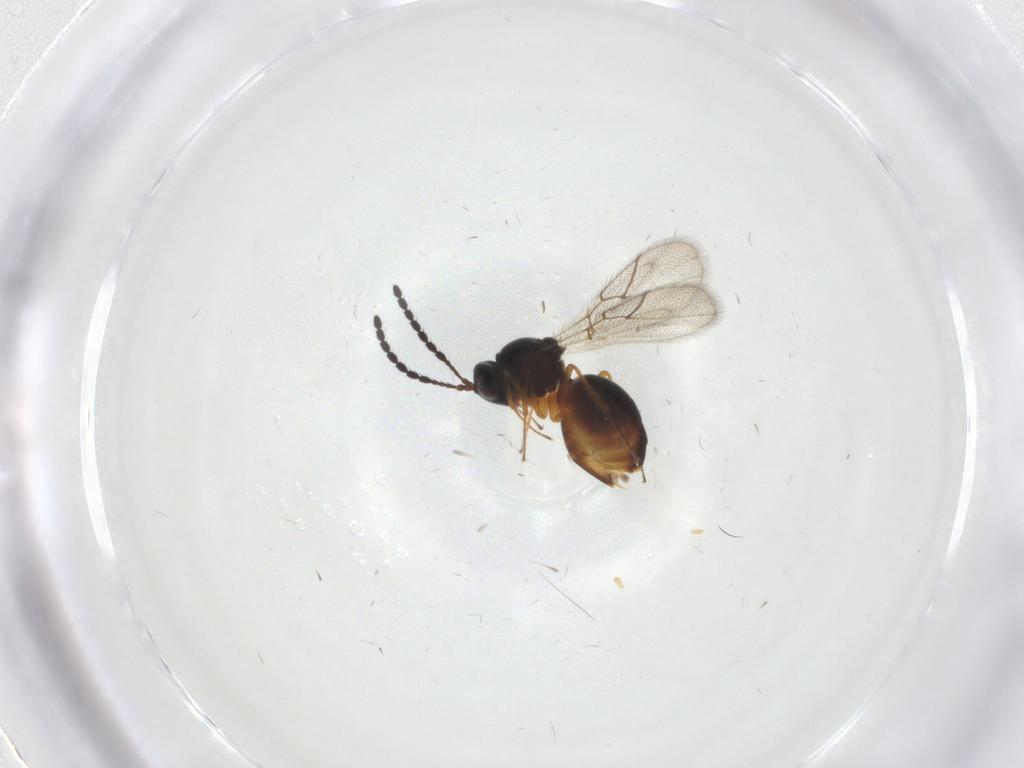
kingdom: Animalia
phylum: Arthropoda
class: Insecta
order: Hymenoptera
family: Figitidae
